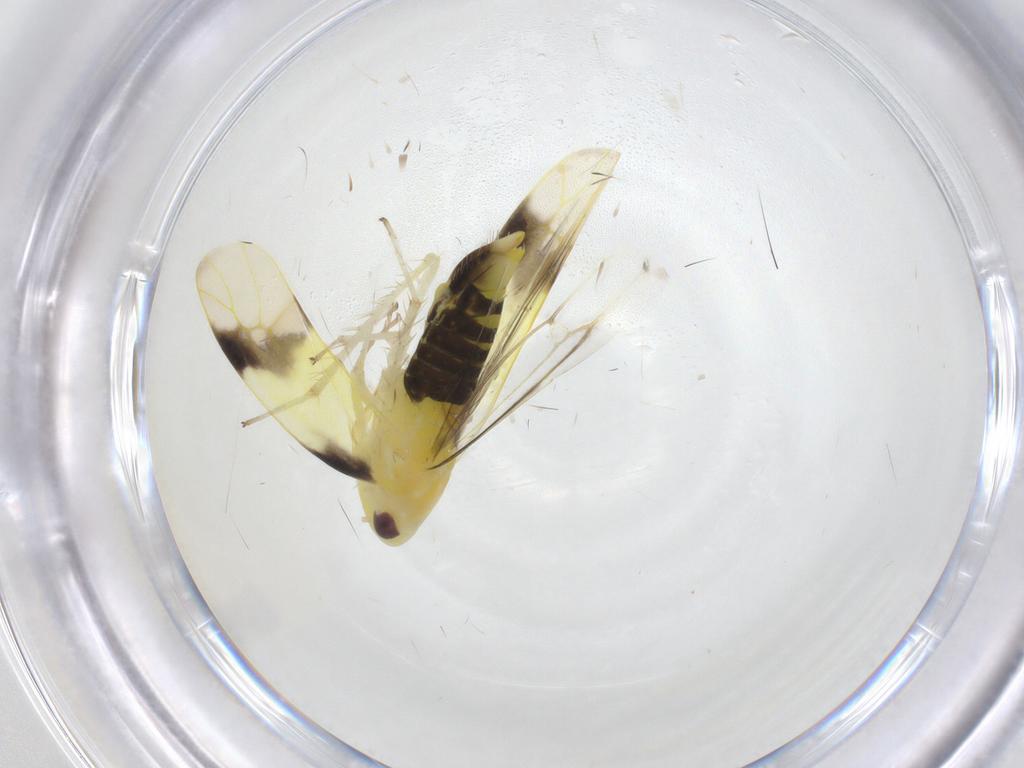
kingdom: Animalia
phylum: Arthropoda
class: Insecta
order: Hemiptera
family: Cicadellidae
